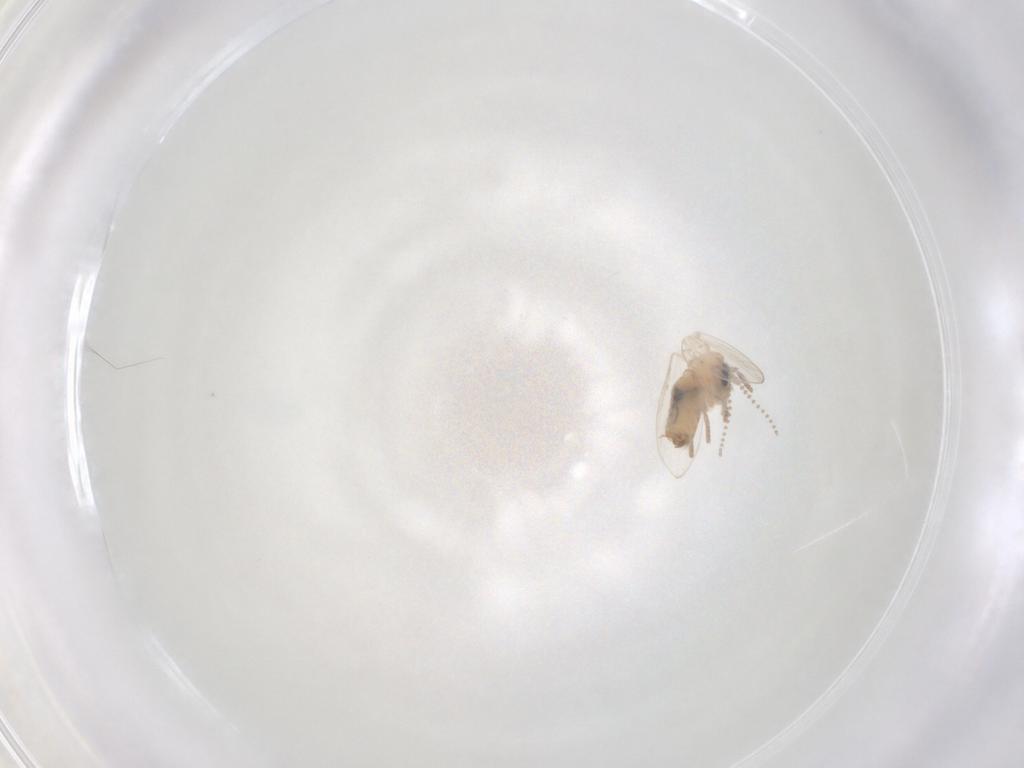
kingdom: Animalia
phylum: Arthropoda
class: Insecta
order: Diptera
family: Psychodidae
